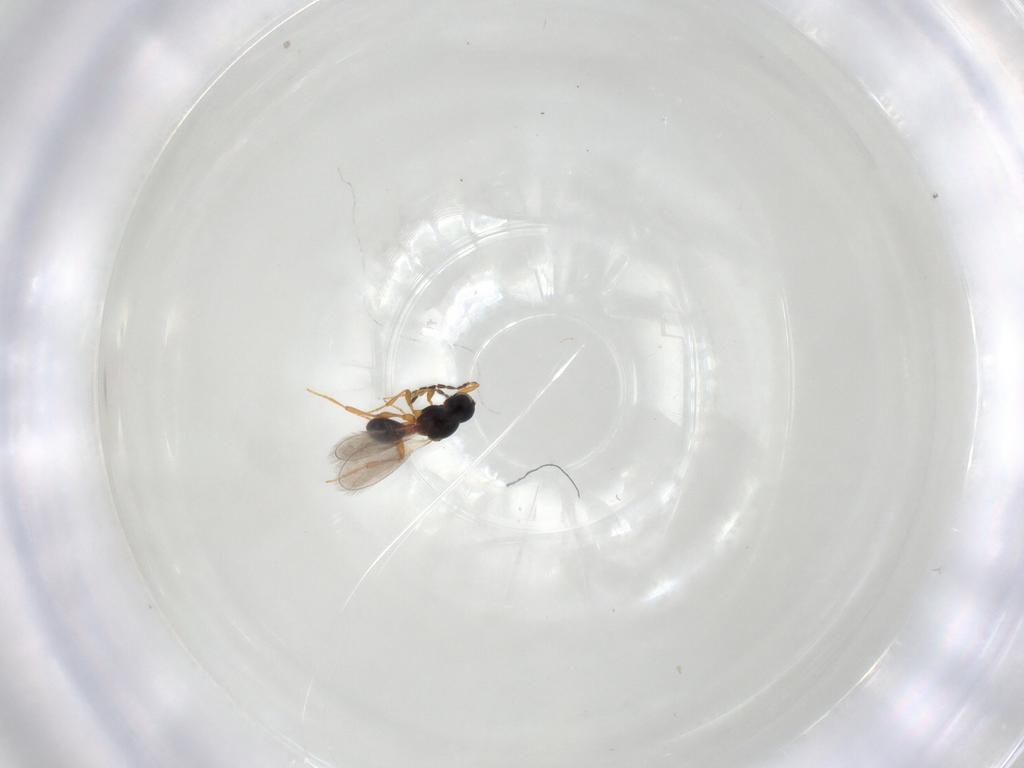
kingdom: Animalia
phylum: Arthropoda
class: Insecta
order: Hymenoptera
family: Platygastridae
